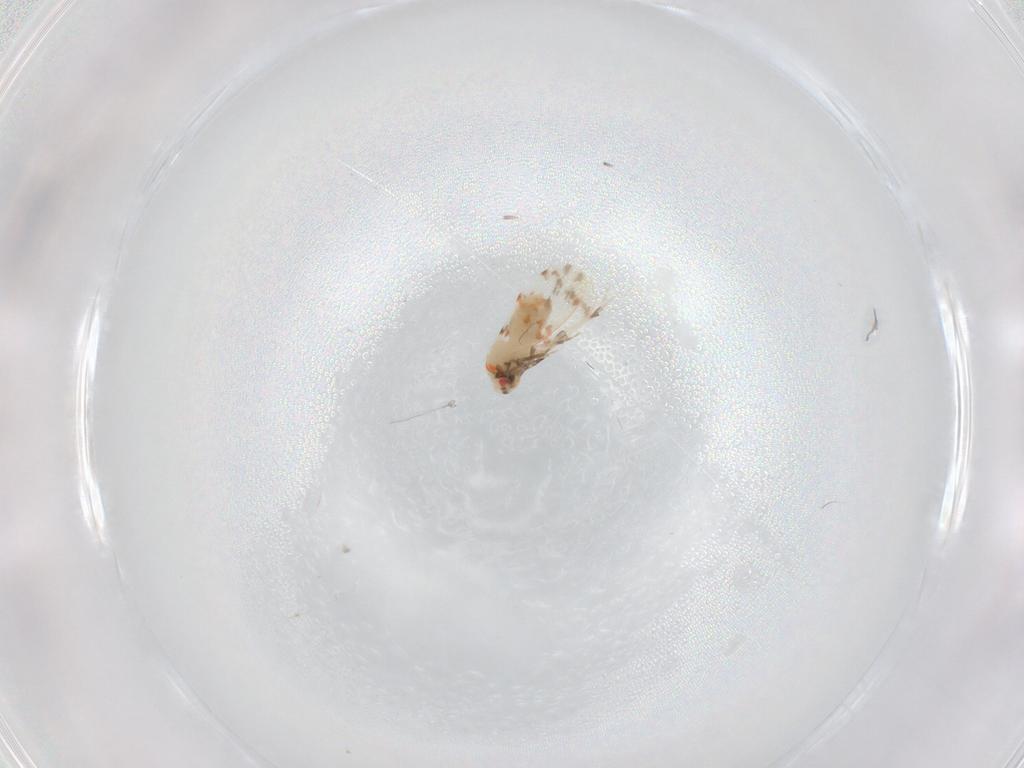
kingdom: Animalia
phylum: Arthropoda
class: Insecta
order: Hemiptera
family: Aleyrodidae
